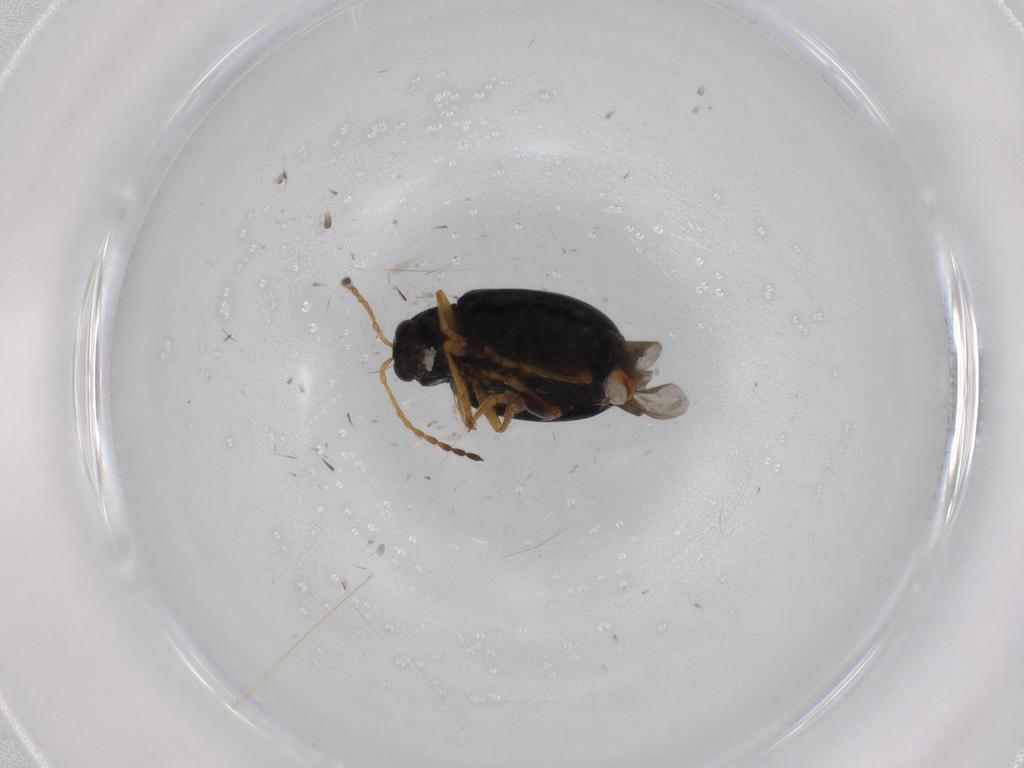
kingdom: Animalia
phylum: Arthropoda
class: Insecta
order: Coleoptera
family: Chrysomelidae
